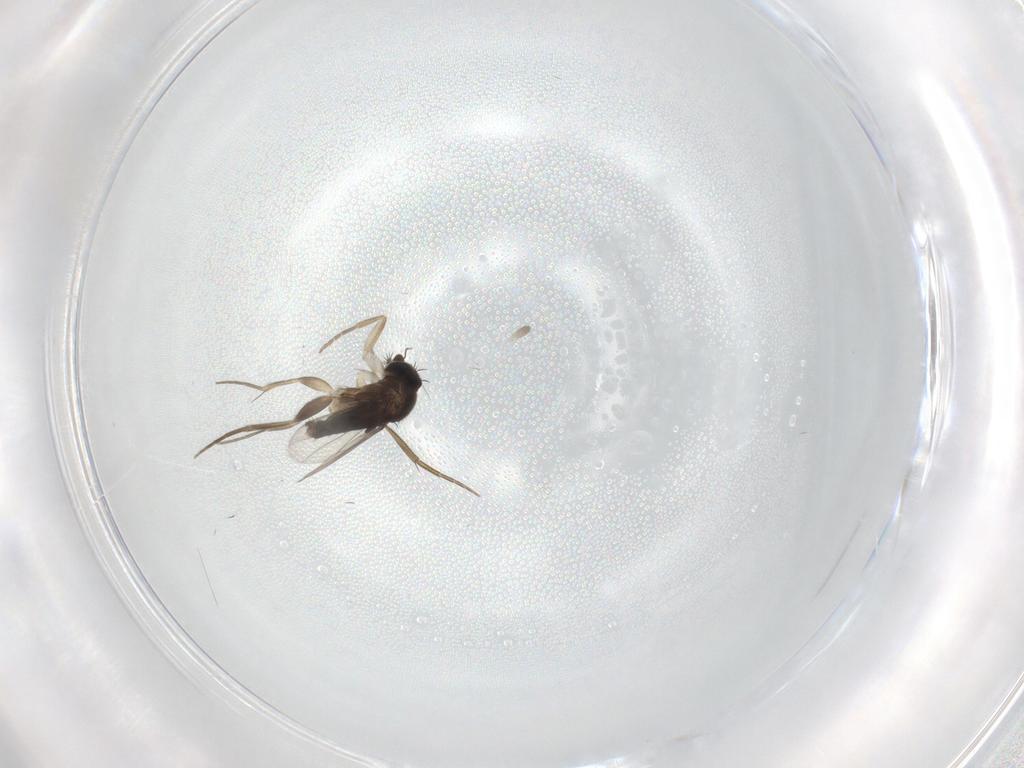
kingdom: Animalia
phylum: Arthropoda
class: Insecta
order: Diptera
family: Phoridae
